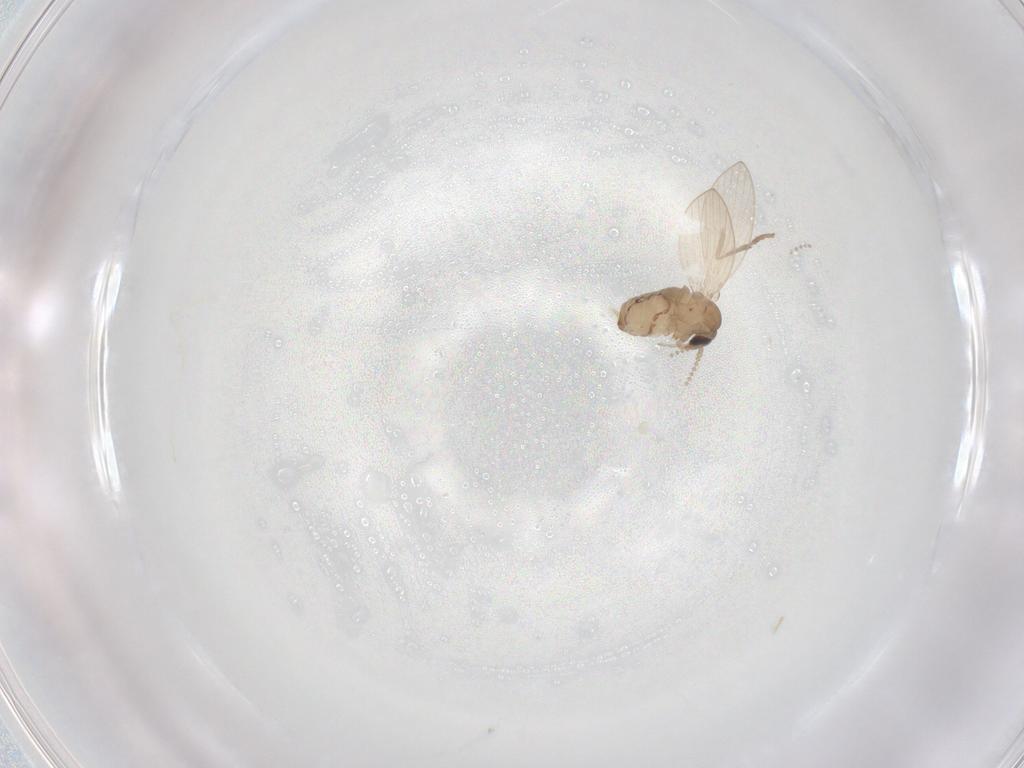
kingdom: Animalia
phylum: Arthropoda
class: Insecta
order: Diptera
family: Psychodidae
